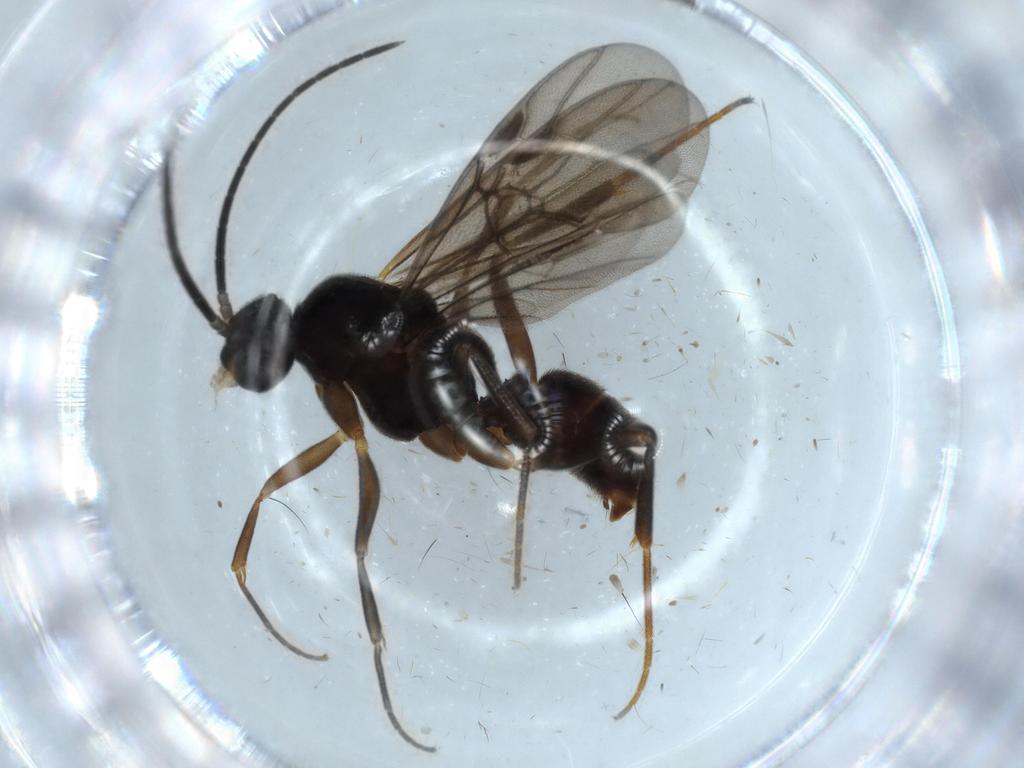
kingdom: Animalia
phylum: Arthropoda
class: Insecta
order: Hymenoptera
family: Formicidae
